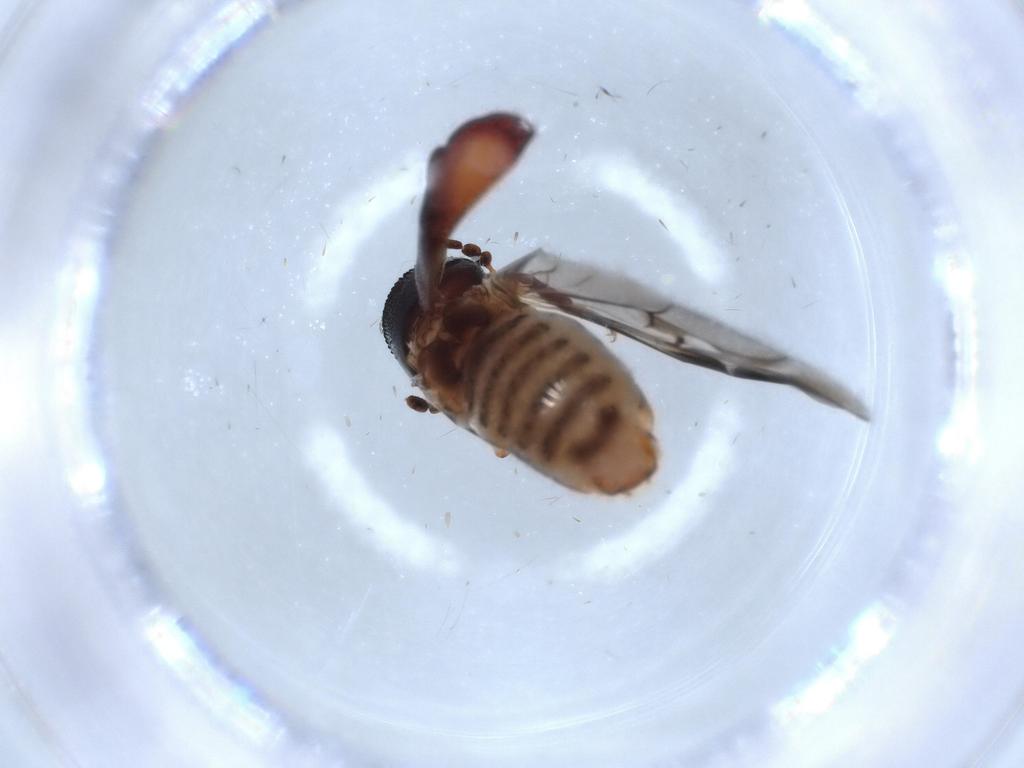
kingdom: Animalia
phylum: Arthropoda
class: Insecta
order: Coleoptera
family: Bostrichidae
